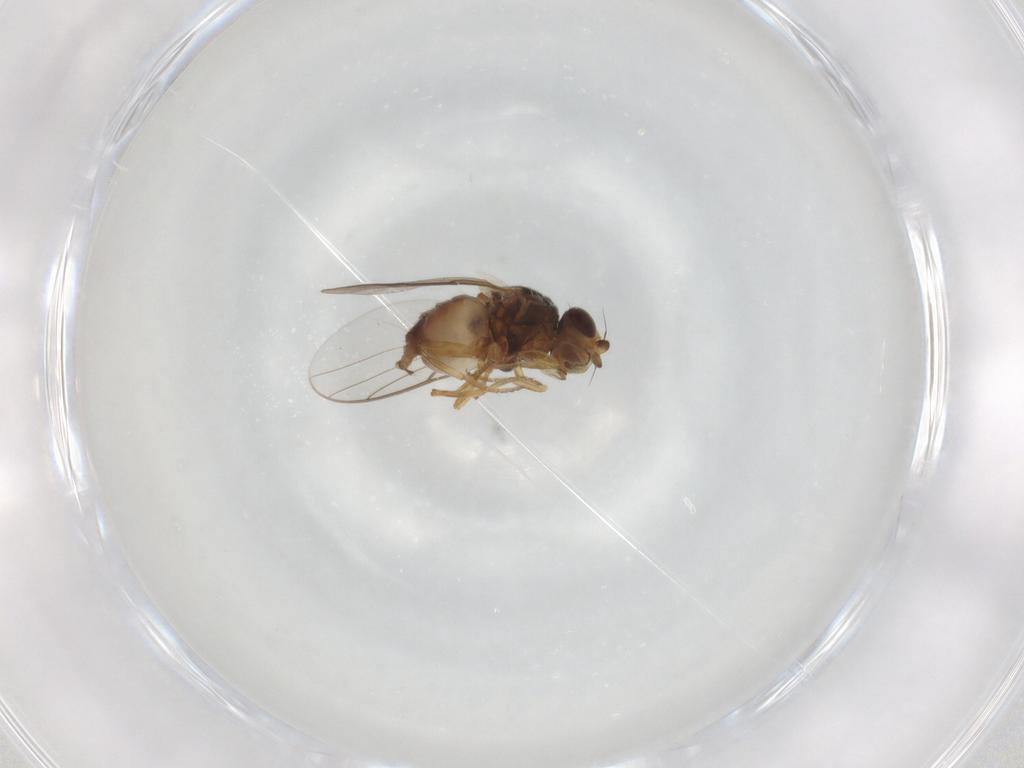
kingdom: Animalia
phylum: Arthropoda
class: Insecta
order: Diptera
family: Chloropidae
